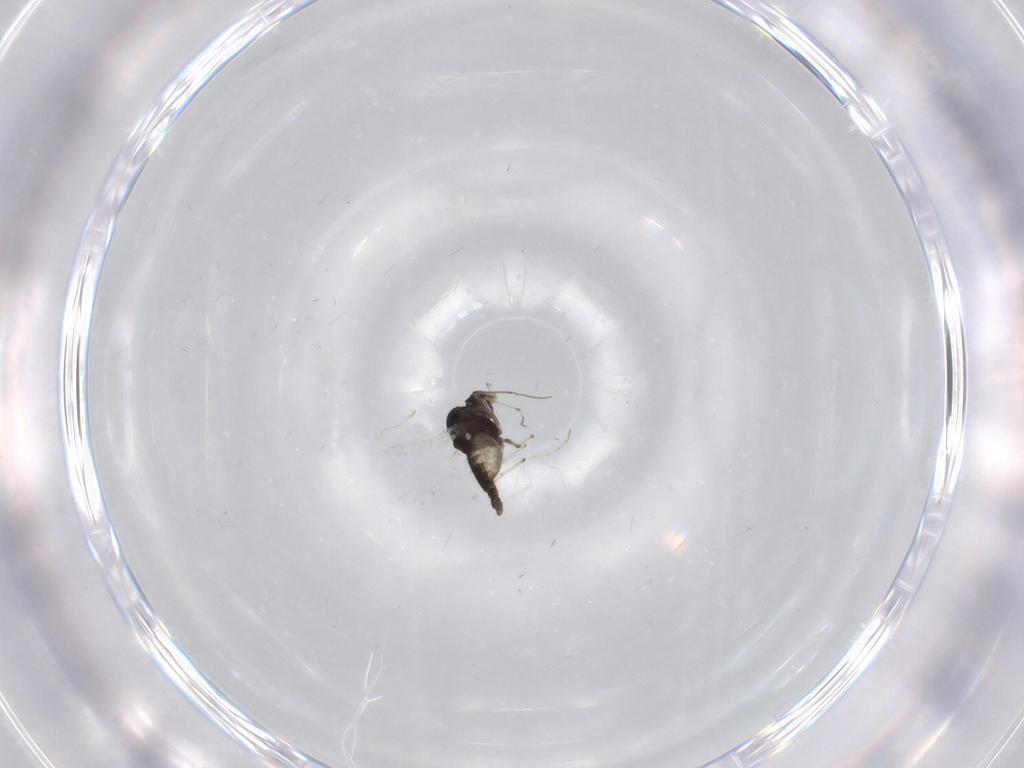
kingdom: Animalia
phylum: Arthropoda
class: Insecta
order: Diptera
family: Chironomidae
